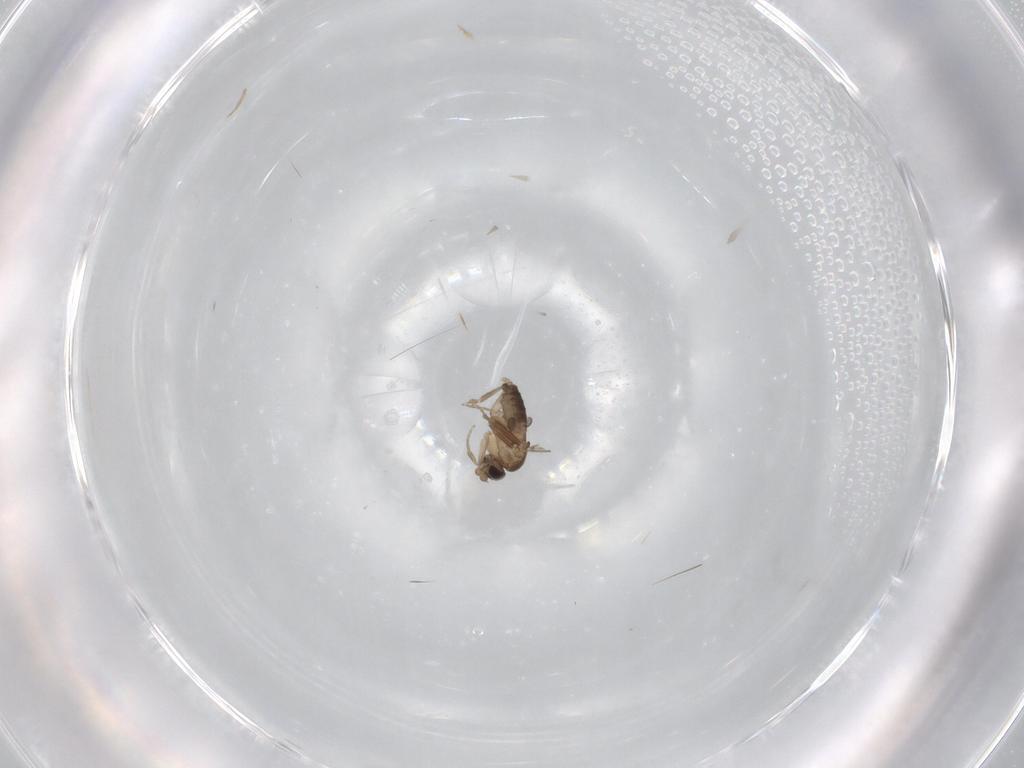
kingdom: Animalia
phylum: Arthropoda
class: Insecta
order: Diptera
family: Phoridae
